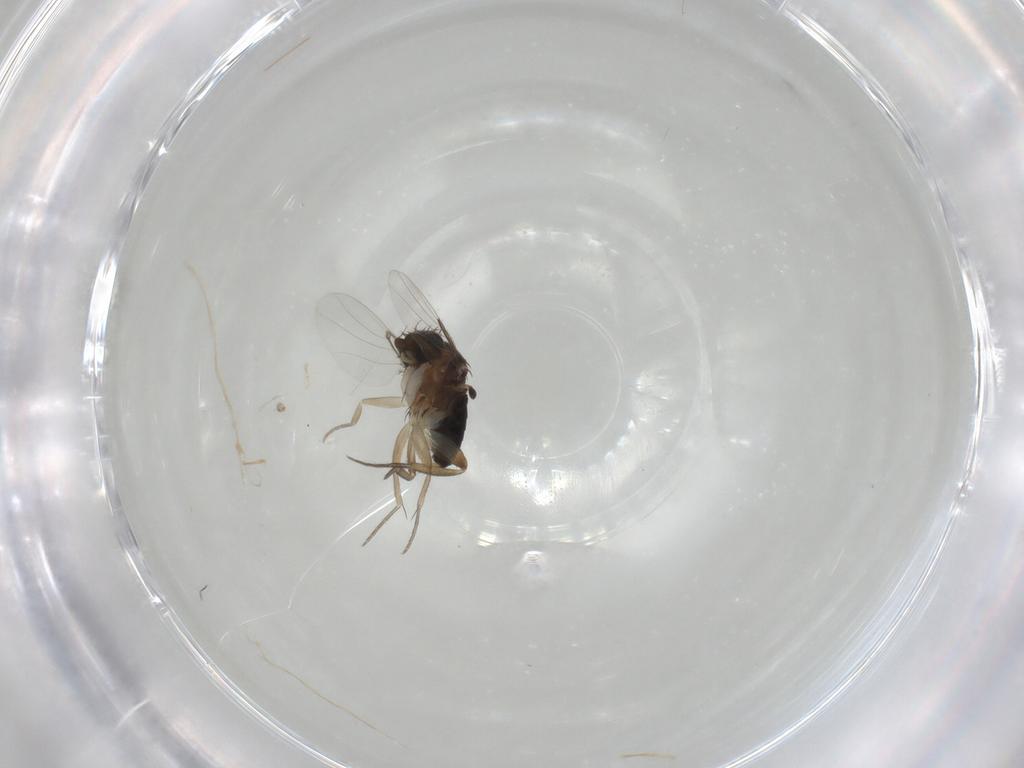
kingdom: Animalia
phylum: Arthropoda
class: Insecta
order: Diptera
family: Phoridae
